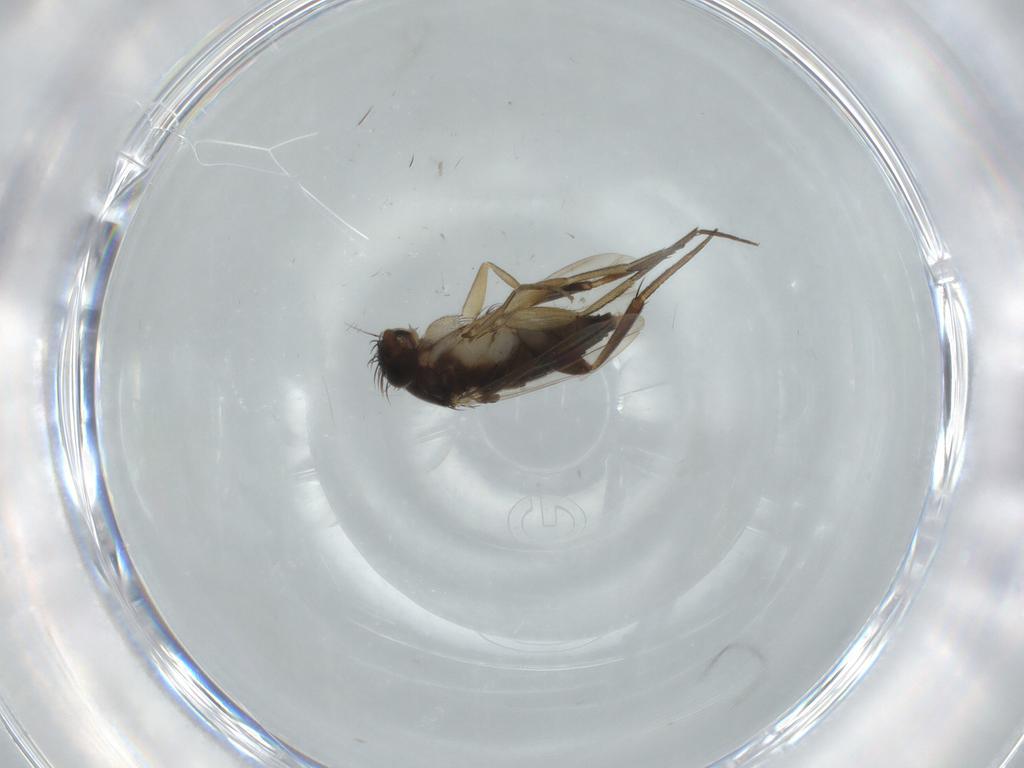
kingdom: Animalia
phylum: Arthropoda
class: Insecta
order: Diptera
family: Phoridae
